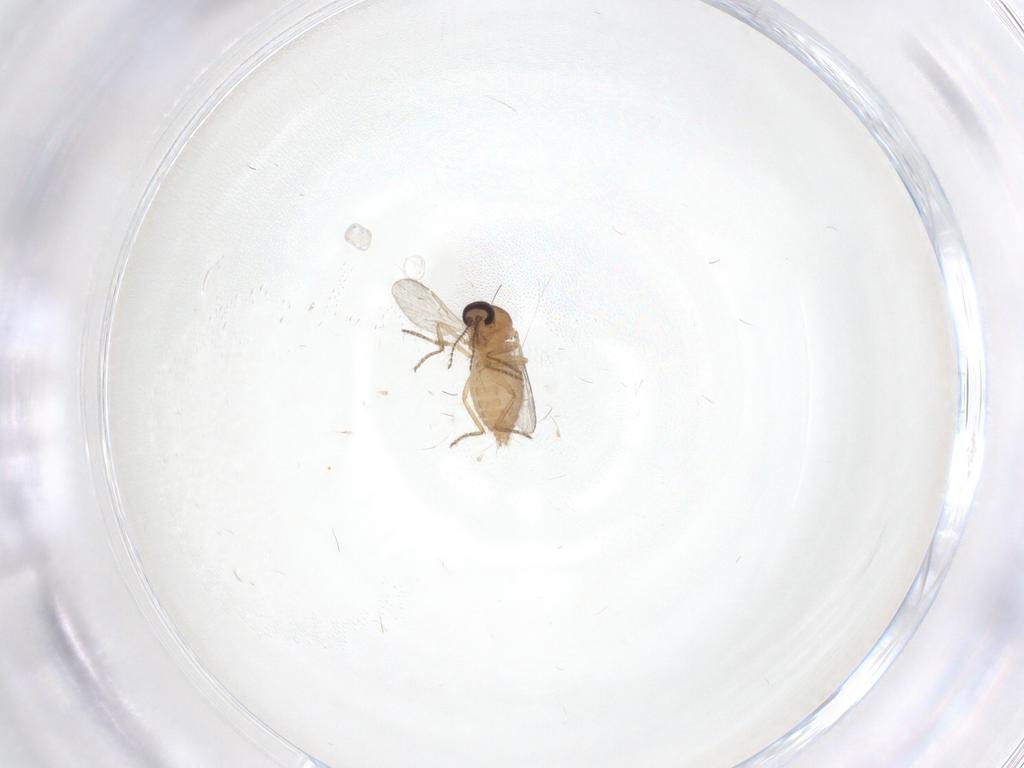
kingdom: Animalia
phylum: Arthropoda
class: Insecta
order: Diptera
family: Ceratopogonidae
